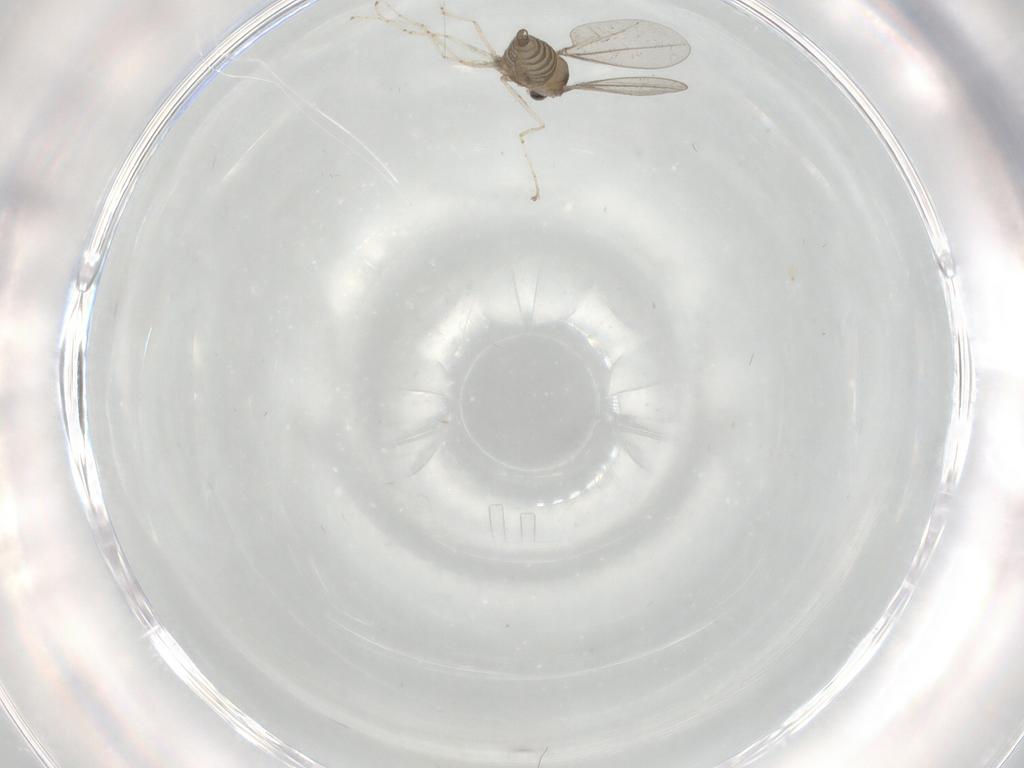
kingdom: Animalia
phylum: Arthropoda
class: Insecta
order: Diptera
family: Cecidomyiidae
